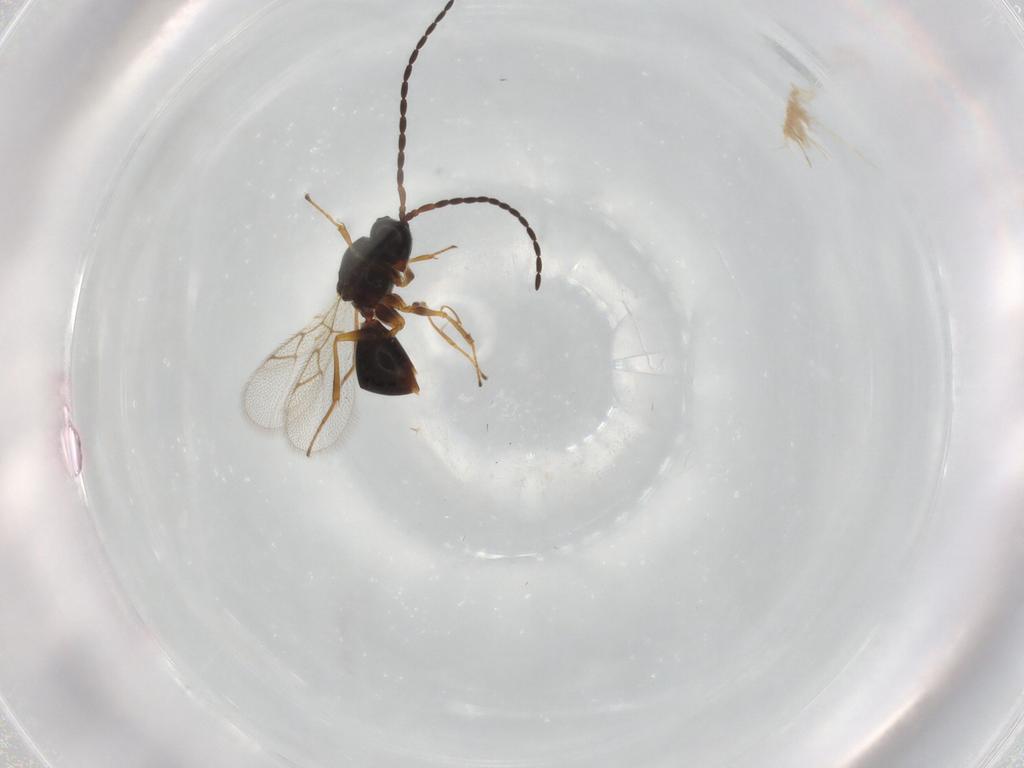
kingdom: Animalia
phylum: Arthropoda
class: Insecta
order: Hymenoptera
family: Figitidae
